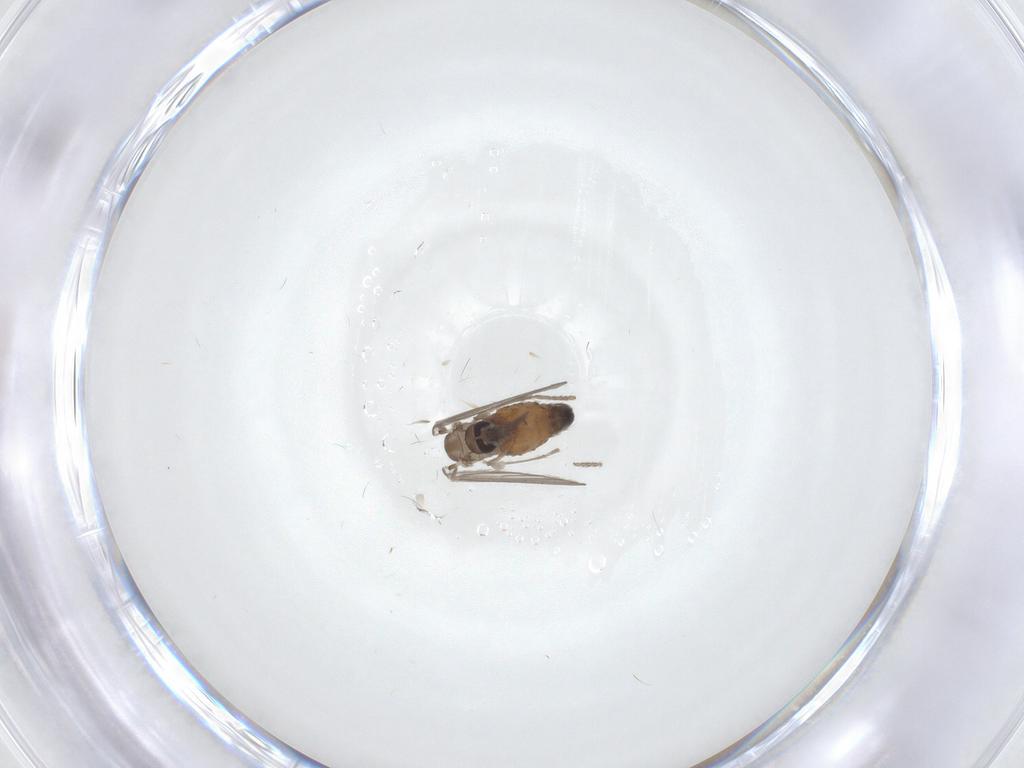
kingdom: Animalia
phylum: Arthropoda
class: Insecta
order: Diptera
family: Psychodidae
